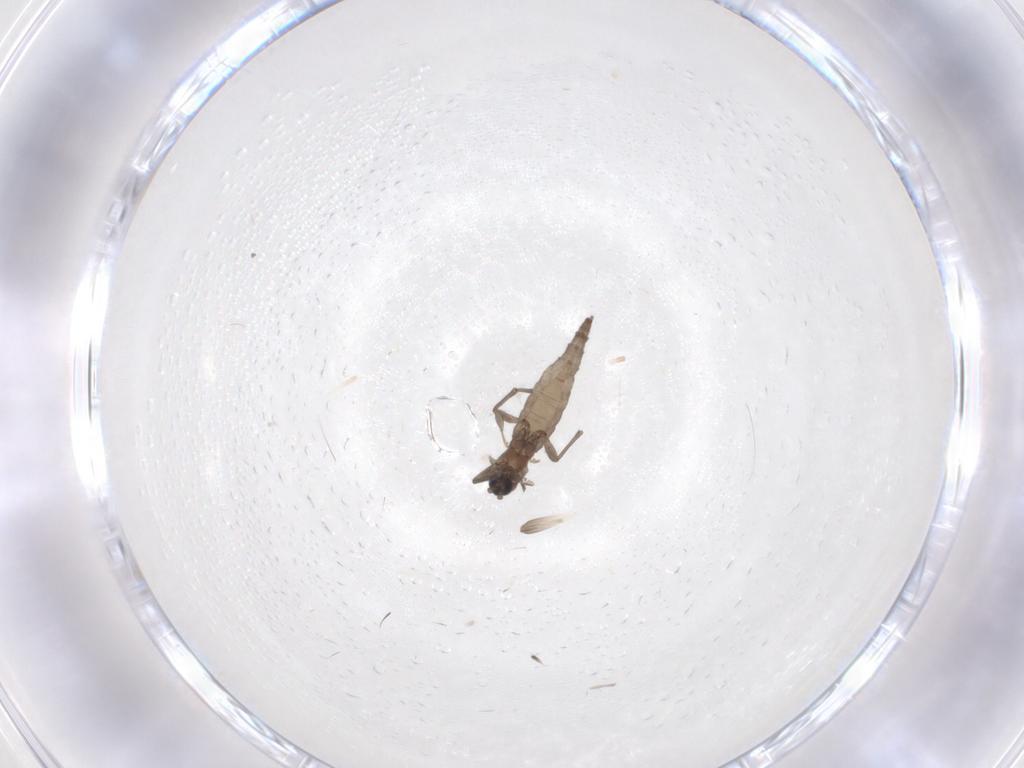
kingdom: Animalia
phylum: Arthropoda
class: Insecta
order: Diptera
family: Sciaridae
